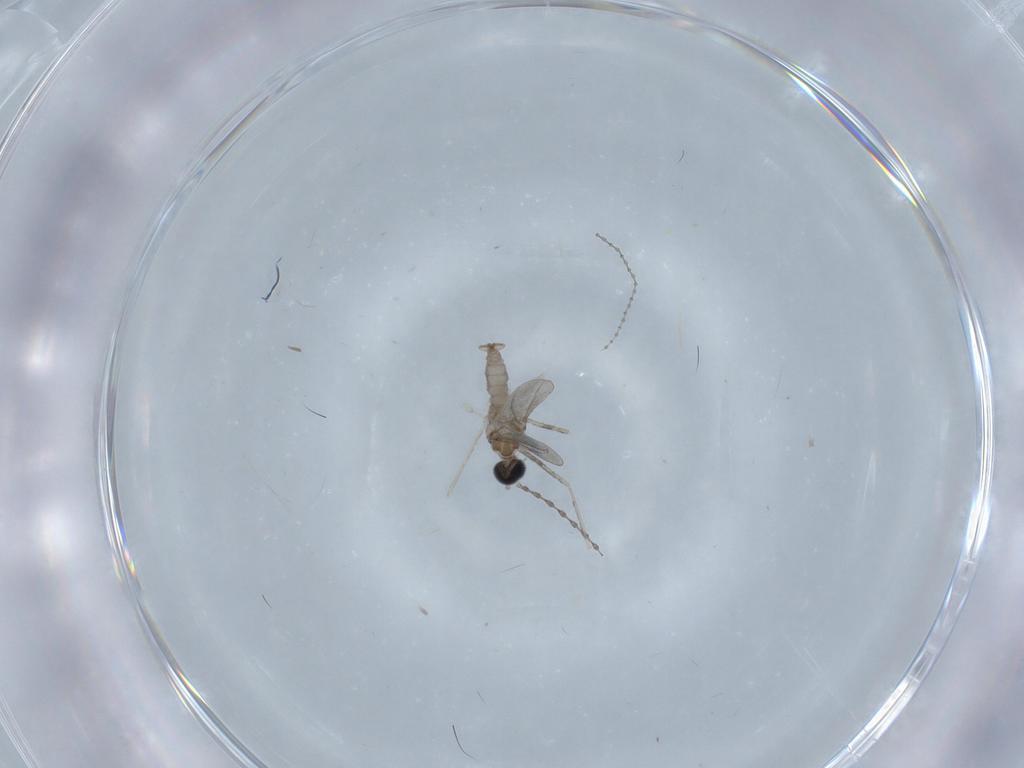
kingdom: Animalia
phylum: Arthropoda
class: Insecta
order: Diptera
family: Cecidomyiidae
